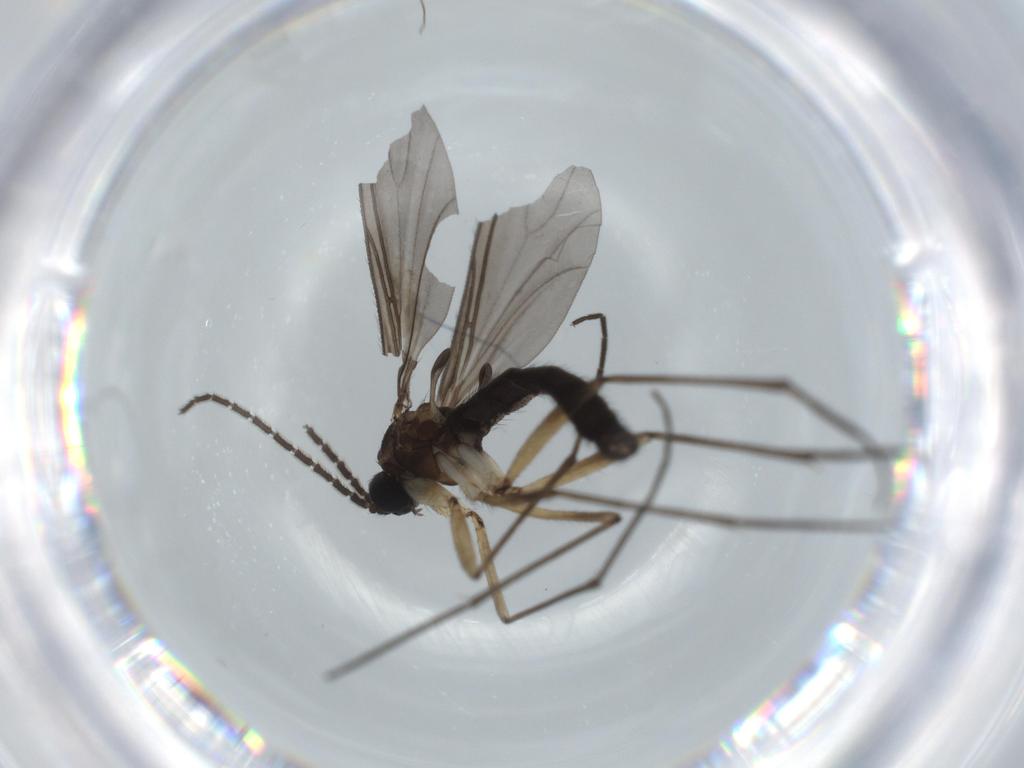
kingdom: Animalia
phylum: Arthropoda
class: Insecta
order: Diptera
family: Sciaridae
